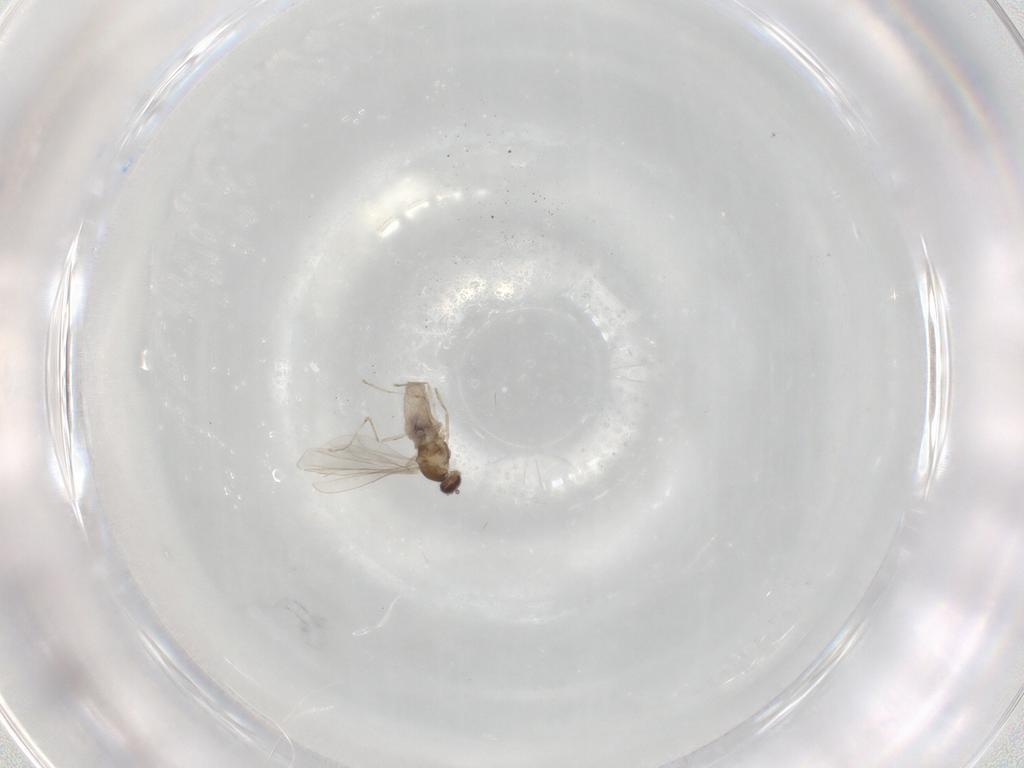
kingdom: Animalia
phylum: Arthropoda
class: Insecta
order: Diptera
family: Cecidomyiidae
